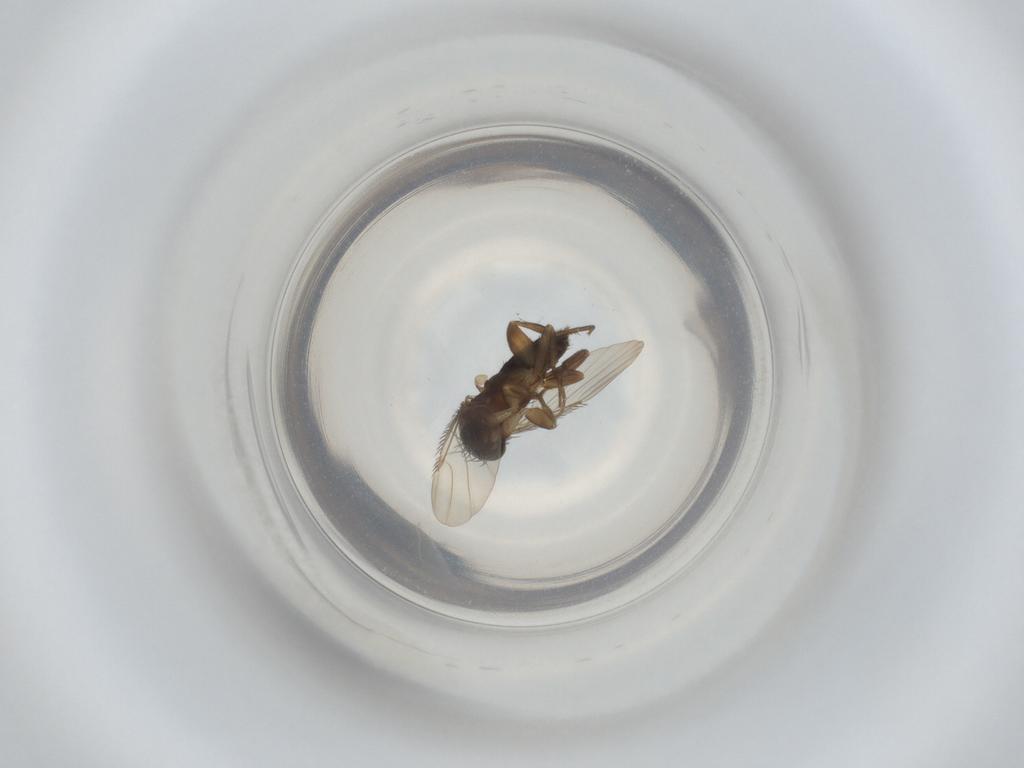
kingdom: Animalia
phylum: Arthropoda
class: Insecta
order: Diptera
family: Phoridae
